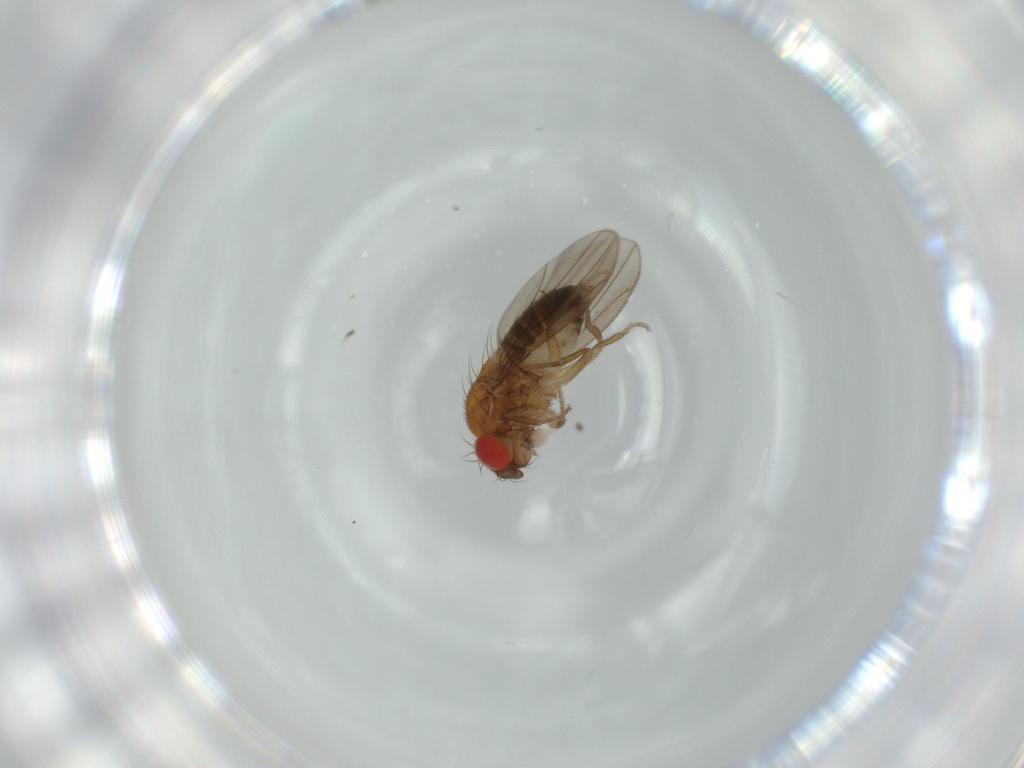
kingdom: Animalia
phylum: Arthropoda
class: Insecta
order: Diptera
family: Drosophilidae
